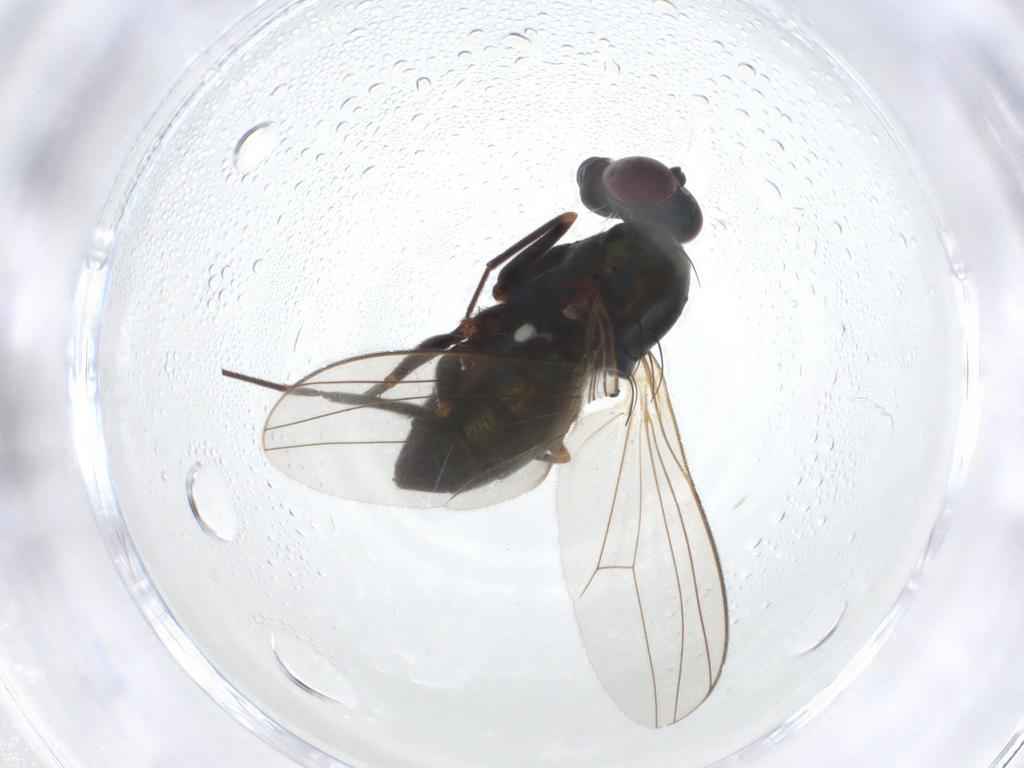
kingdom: Animalia
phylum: Arthropoda
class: Insecta
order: Diptera
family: Dolichopodidae
